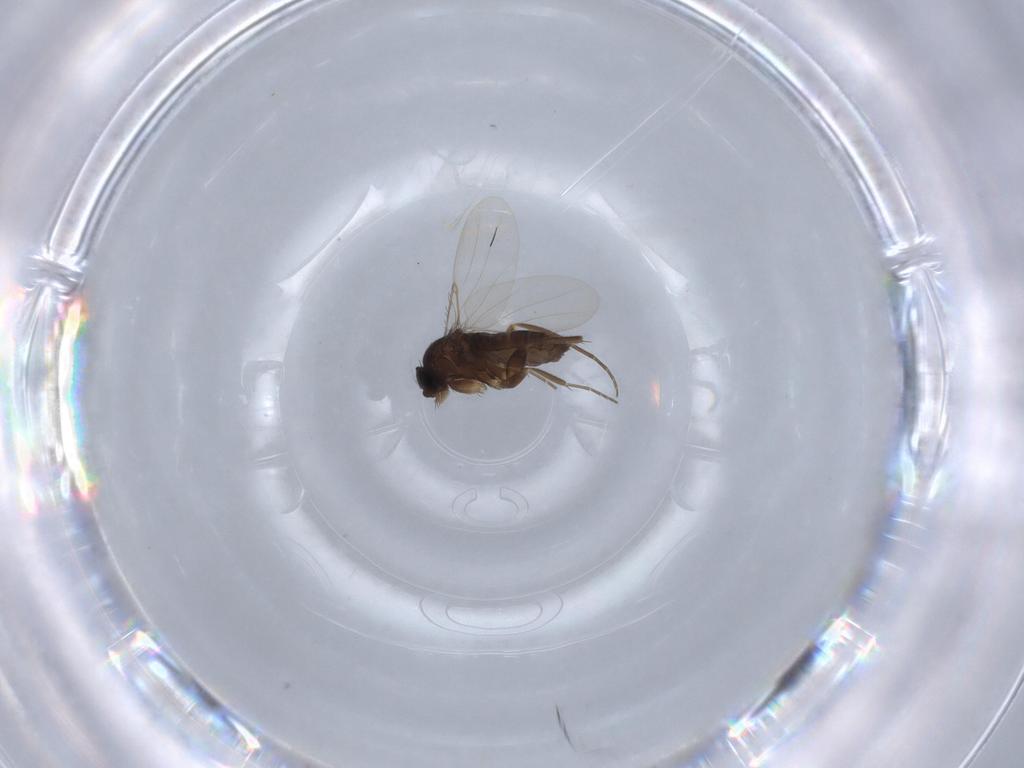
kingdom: Animalia
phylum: Arthropoda
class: Insecta
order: Diptera
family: Phoridae
